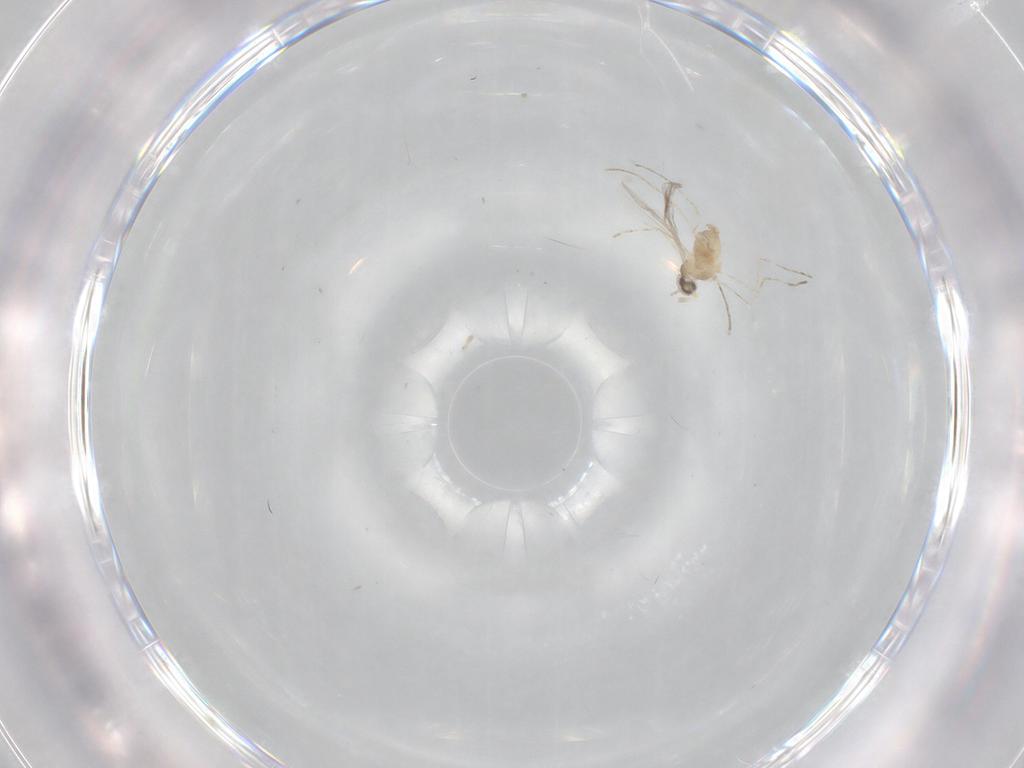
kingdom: Animalia
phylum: Arthropoda
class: Insecta
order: Diptera
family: Cecidomyiidae
